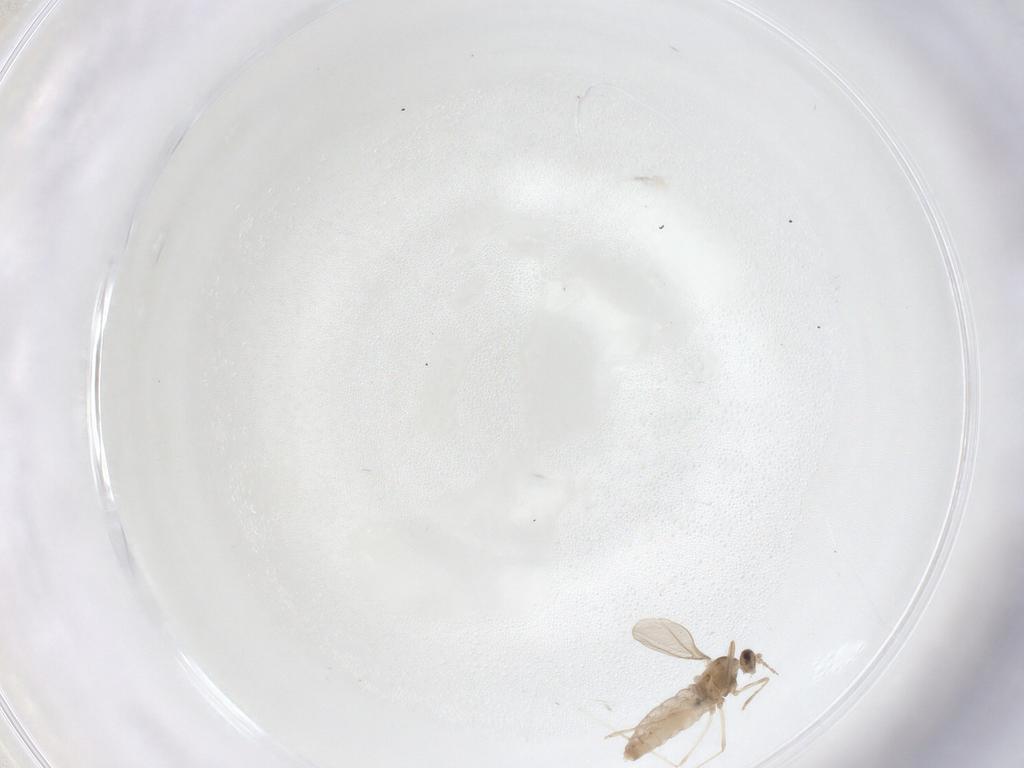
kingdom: Animalia
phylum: Arthropoda
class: Insecta
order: Diptera
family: Cecidomyiidae
